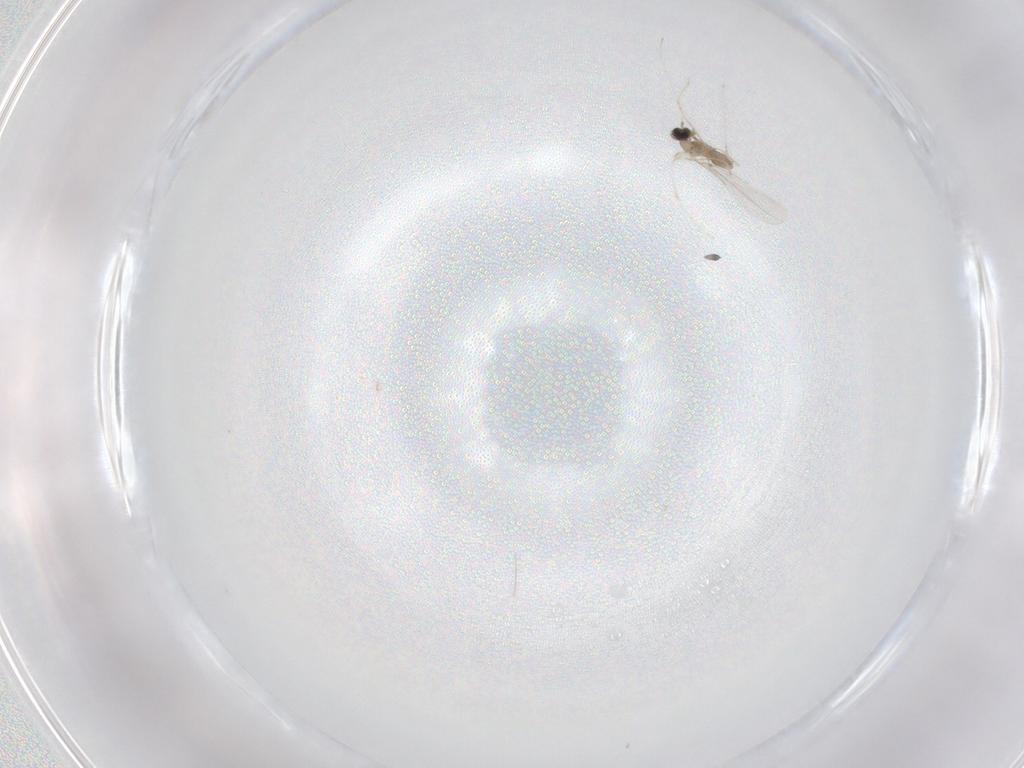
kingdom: Animalia
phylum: Arthropoda
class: Insecta
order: Diptera
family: Cecidomyiidae
